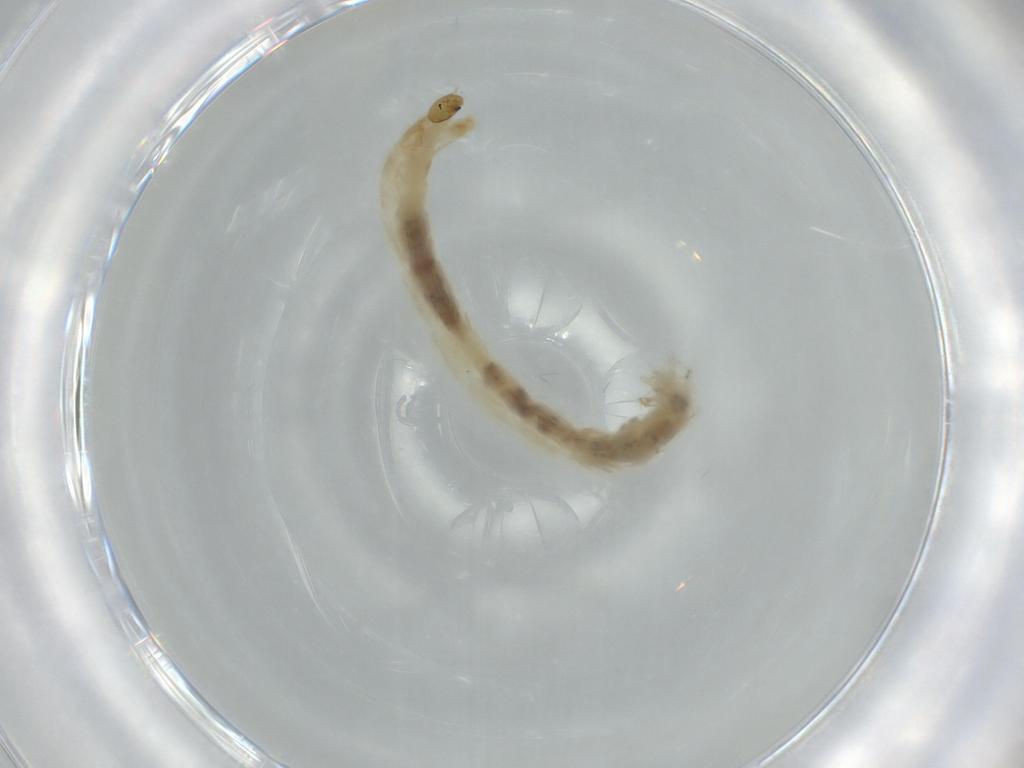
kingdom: Animalia
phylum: Arthropoda
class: Insecta
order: Diptera
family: Chironomidae
